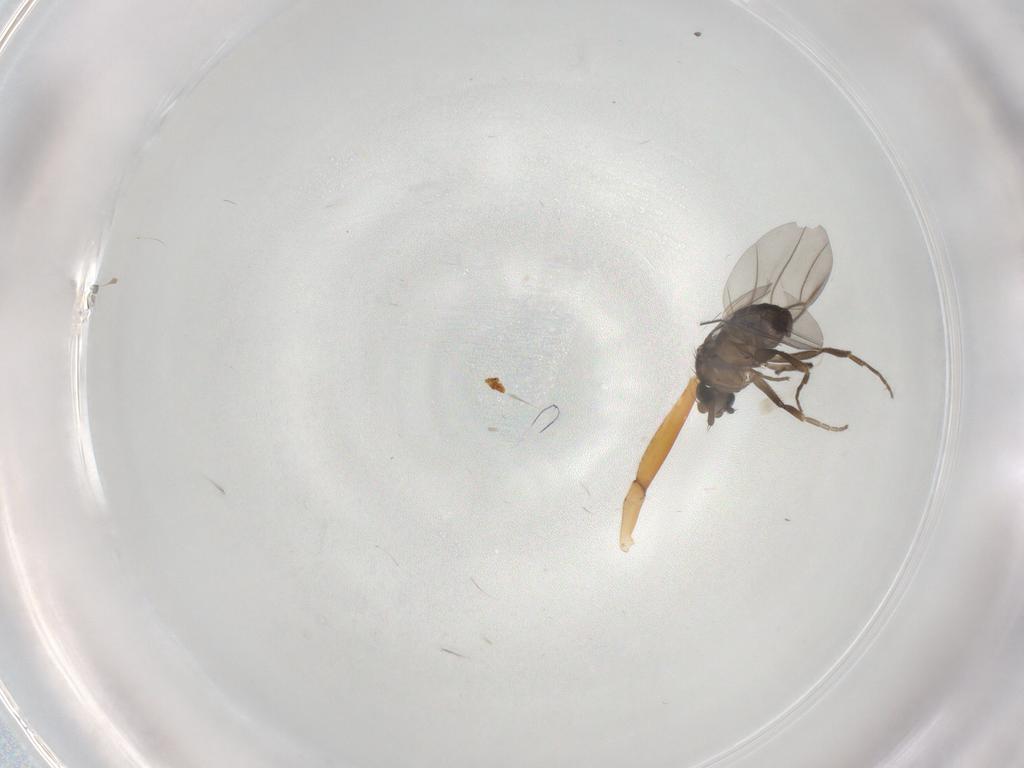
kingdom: Animalia
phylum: Arthropoda
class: Insecta
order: Diptera
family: Phoridae
